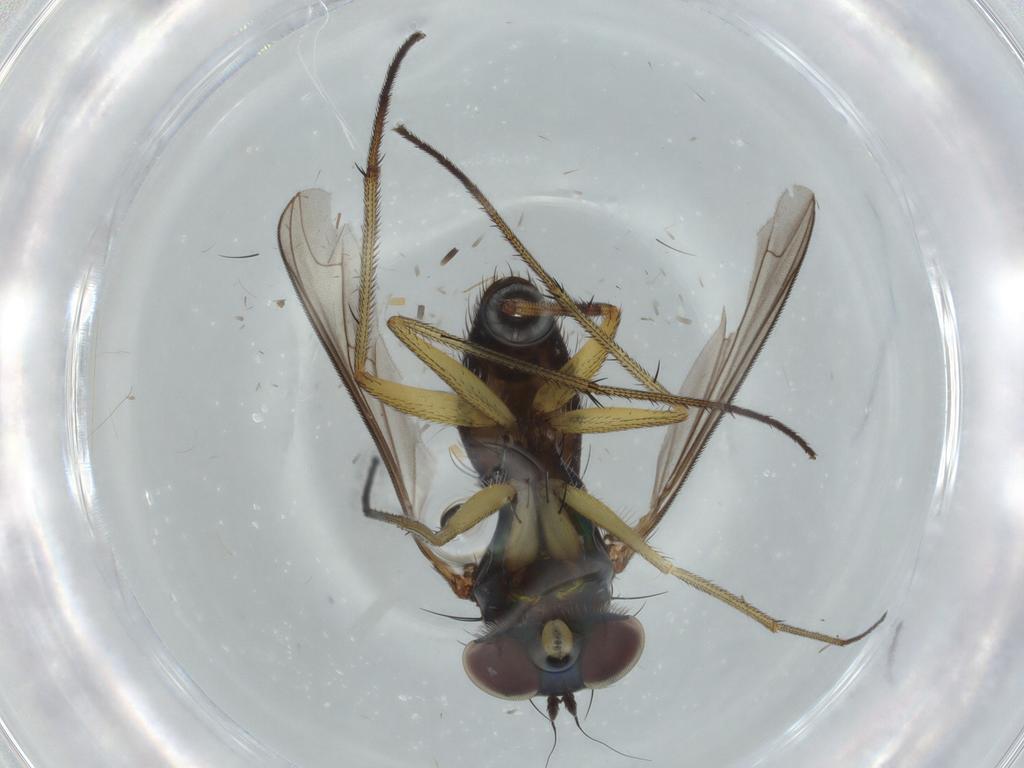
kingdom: Animalia
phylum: Arthropoda
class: Insecta
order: Diptera
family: Dolichopodidae
